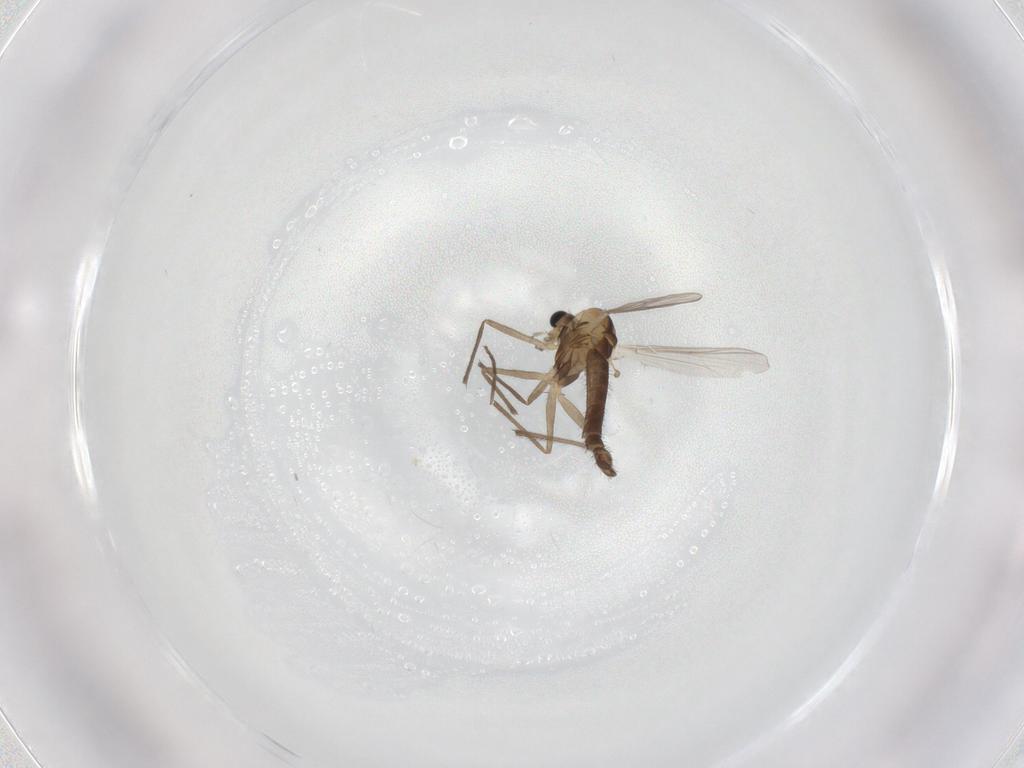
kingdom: Animalia
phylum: Arthropoda
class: Insecta
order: Diptera
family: Chironomidae
